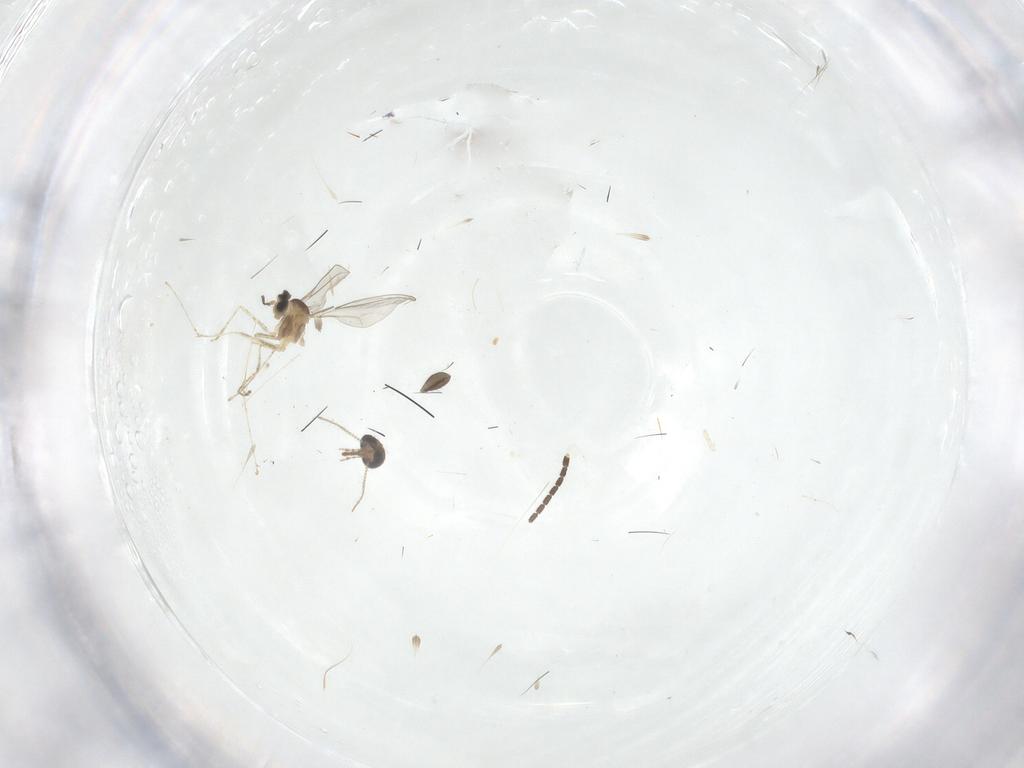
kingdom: Animalia
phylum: Arthropoda
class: Insecta
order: Diptera
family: Cecidomyiidae
